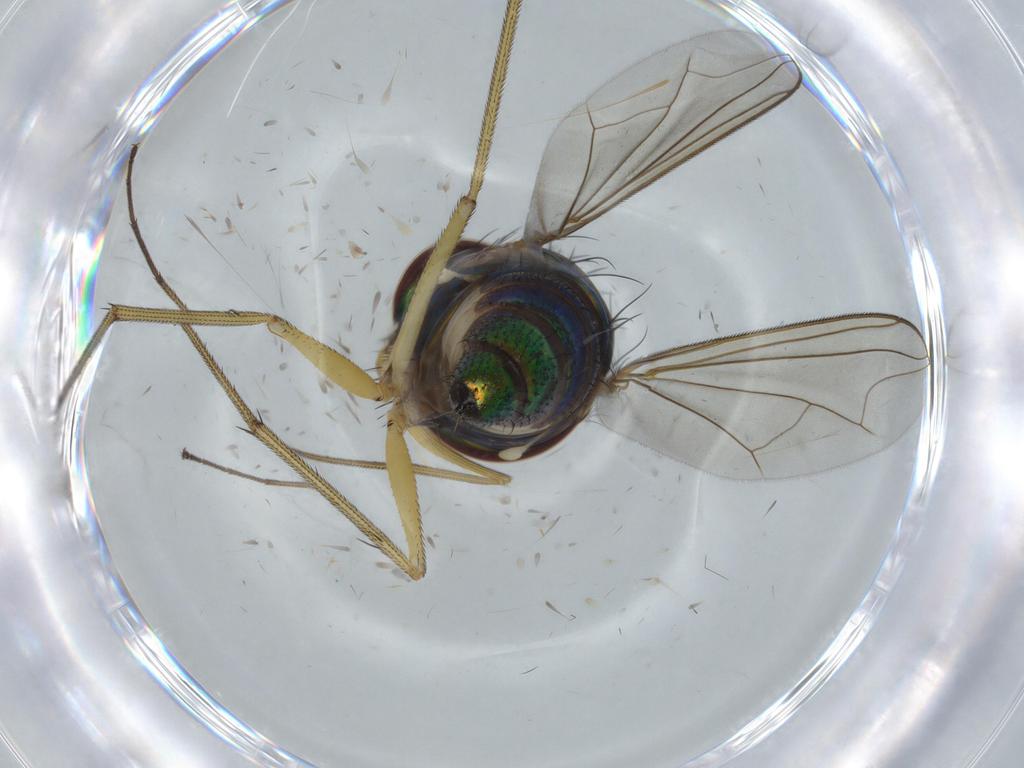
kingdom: Animalia
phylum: Arthropoda
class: Insecta
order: Diptera
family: Dolichopodidae
